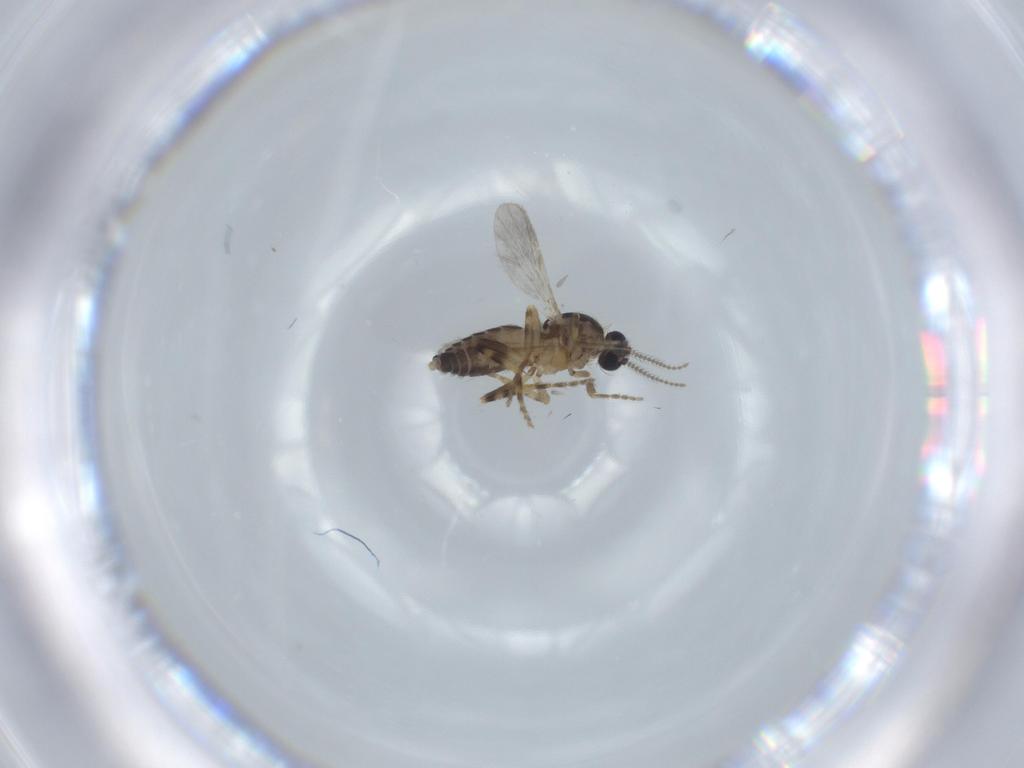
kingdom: Animalia
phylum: Arthropoda
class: Insecta
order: Diptera
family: Ceratopogonidae
